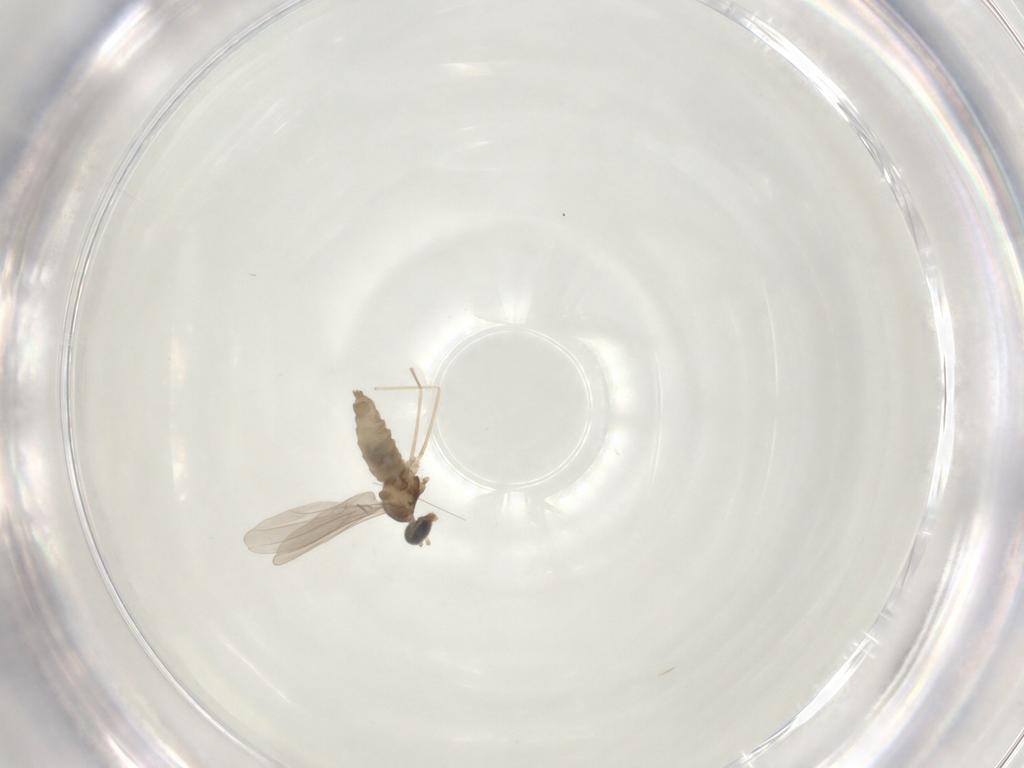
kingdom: Animalia
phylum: Arthropoda
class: Insecta
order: Diptera
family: Cecidomyiidae
